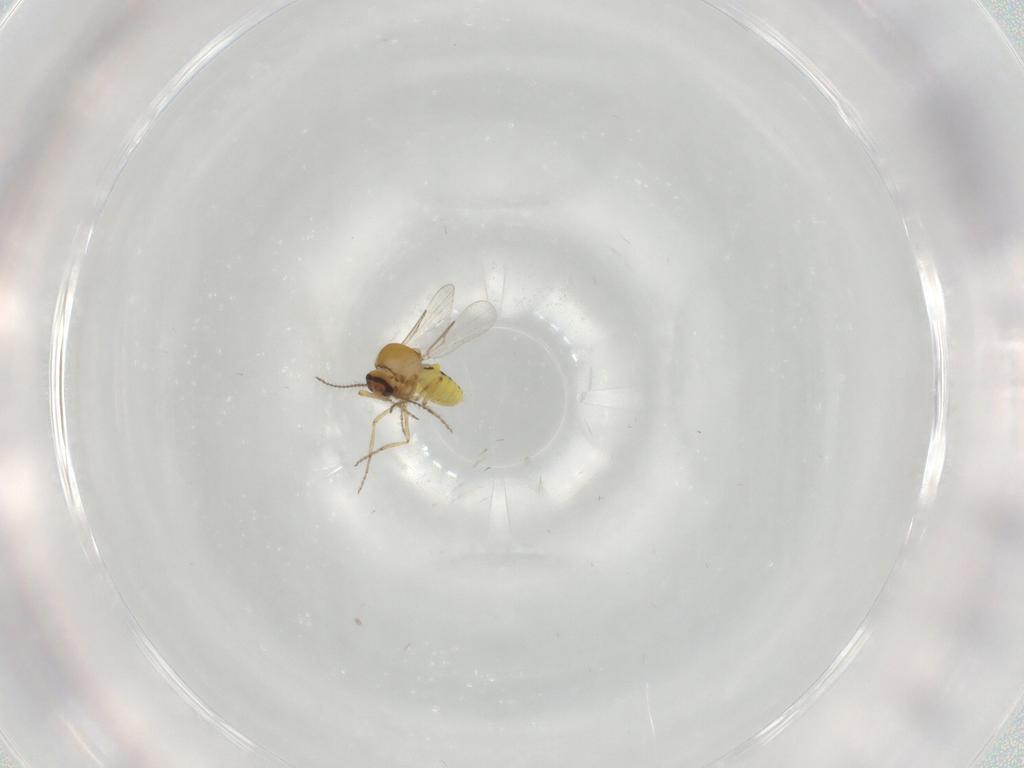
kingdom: Animalia
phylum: Arthropoda
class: Insecta
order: Diptera
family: Ceratopogonidae
